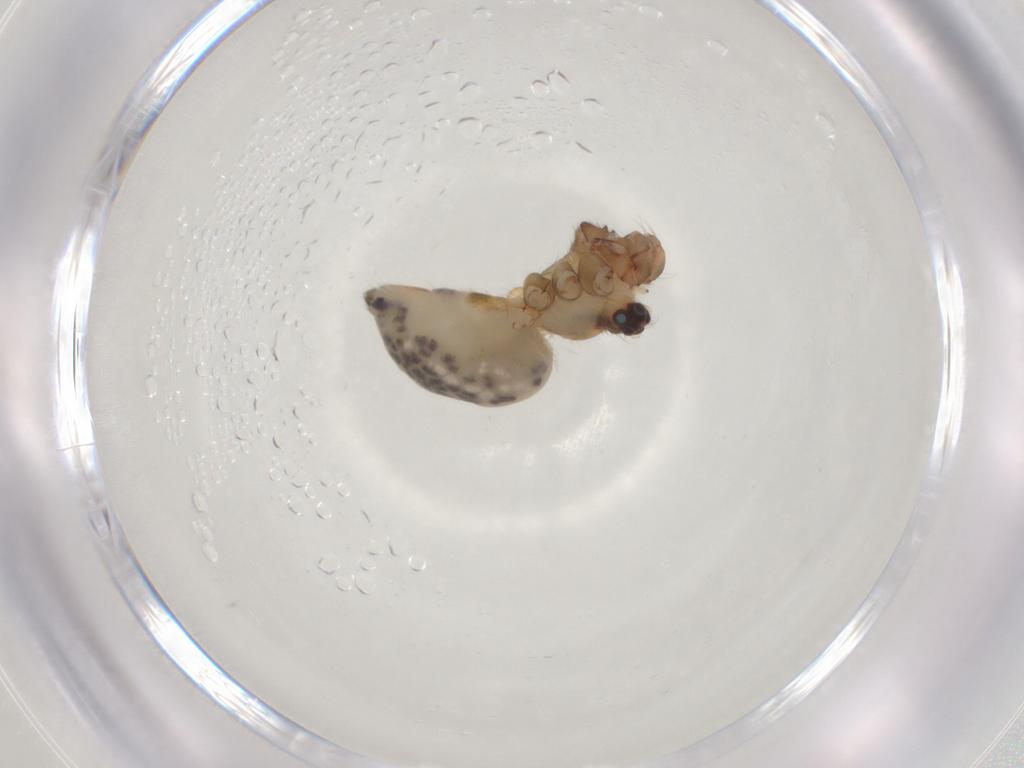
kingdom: Animalia
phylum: Arthropoda
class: Arachnida
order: Araneae
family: Pholcidae
